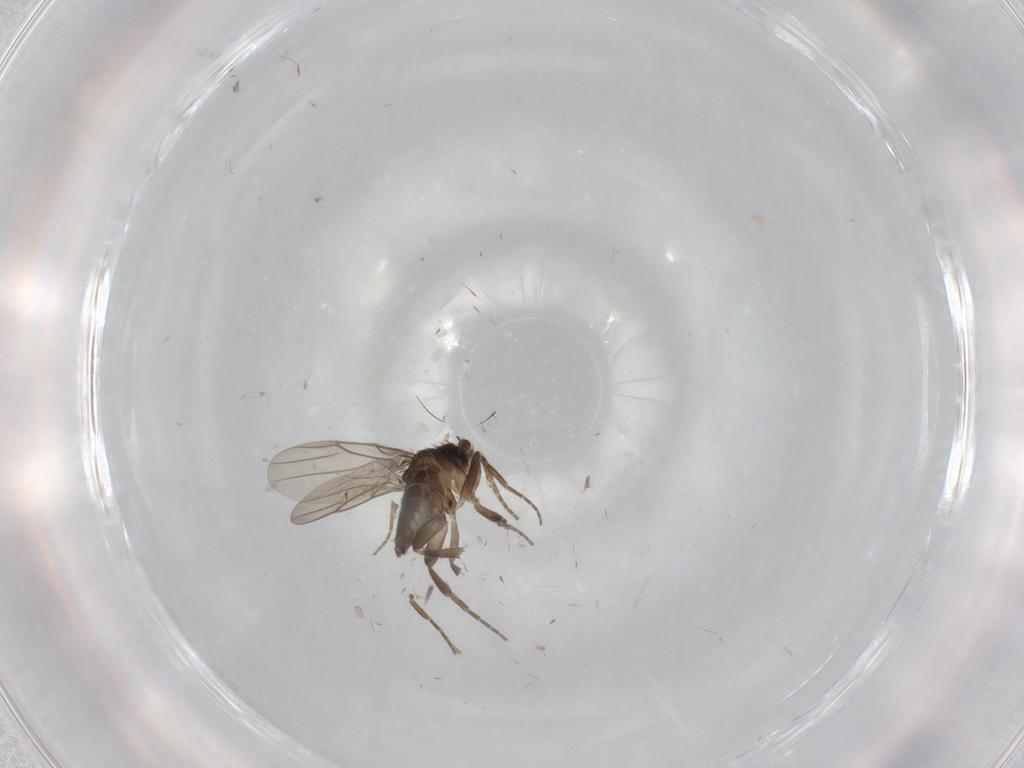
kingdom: Animalia
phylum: Arthropoda
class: Insecta
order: Diptera
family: Phoridae
